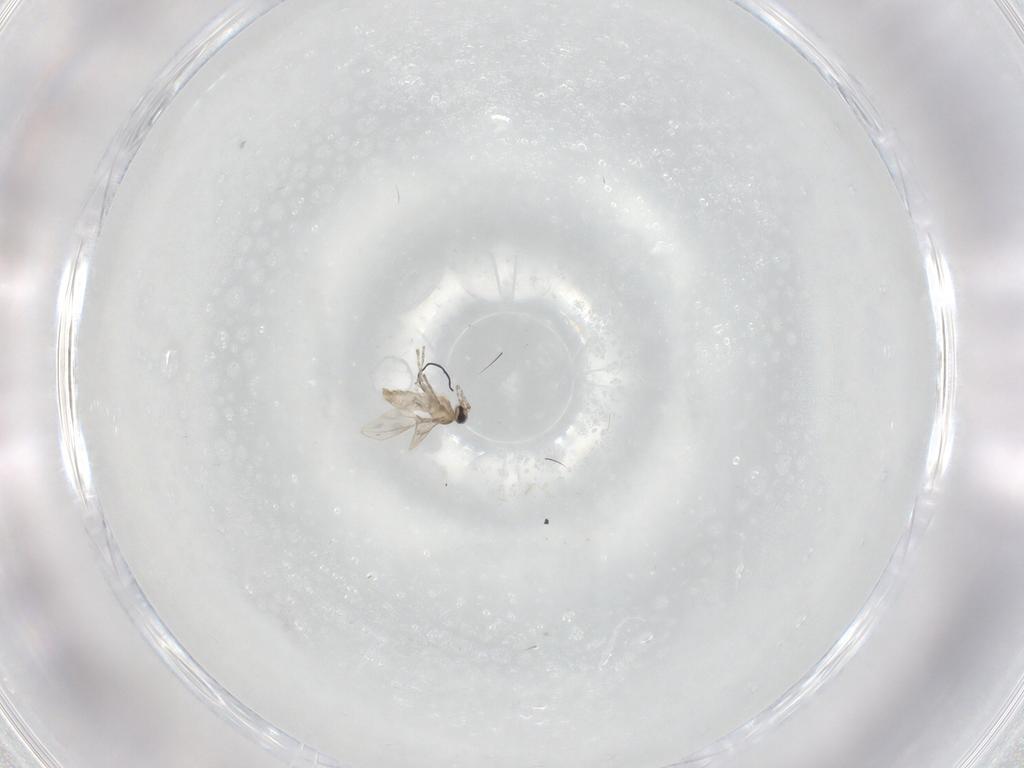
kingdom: Animalia
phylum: Arthropoda
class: Insecta
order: Diptera
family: Cecidomyiidae
